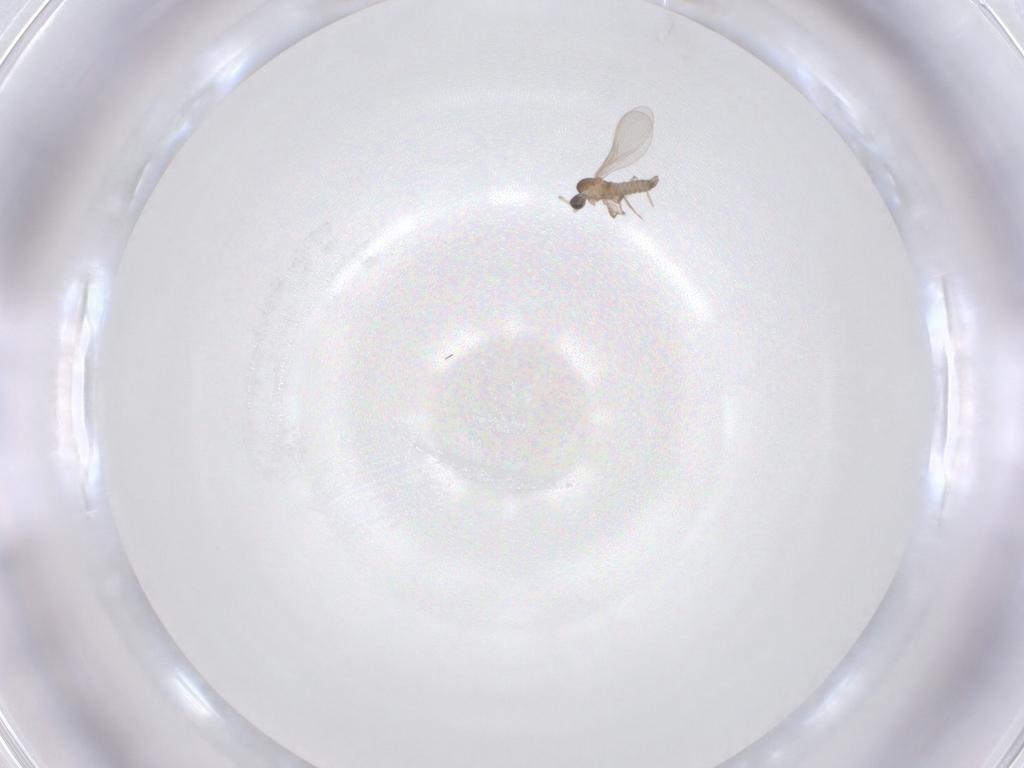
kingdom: Animalia
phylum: Arthropoda
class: Insecta
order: Diptera
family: Cecidomyiidae
